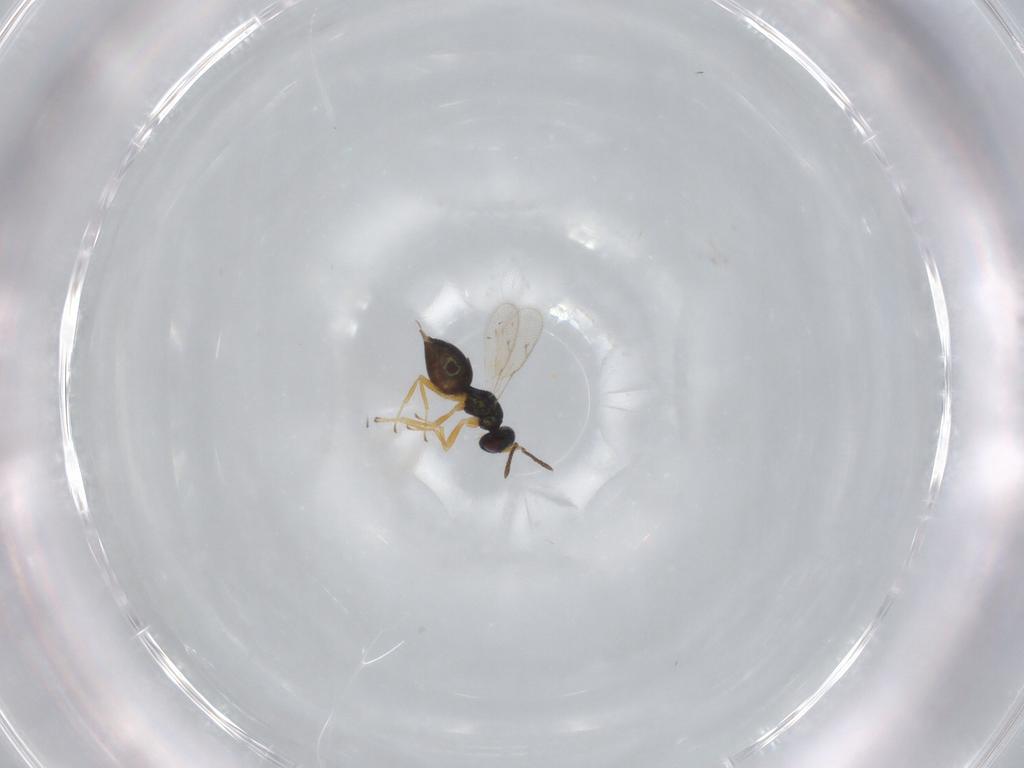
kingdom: Animalia
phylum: Arthropoda
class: Insecta
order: Hymenoptera
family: Pteromalidae
